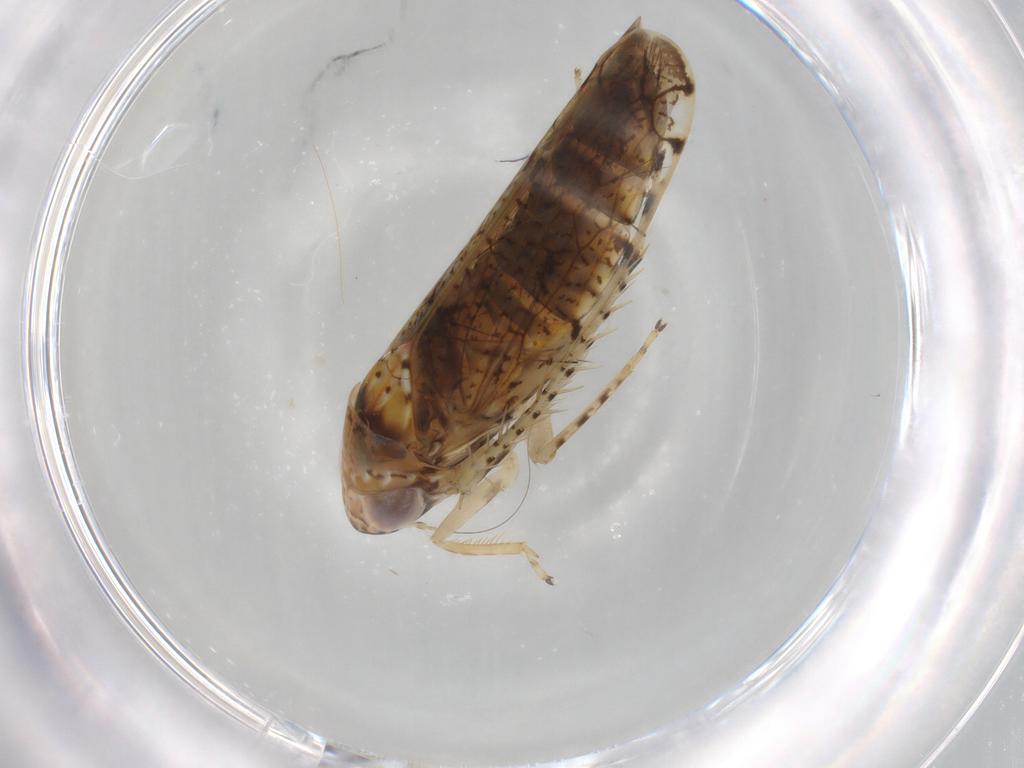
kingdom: Animalia
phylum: Arthropoda
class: Insecta
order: Hemiptera
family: Cicadellidae
